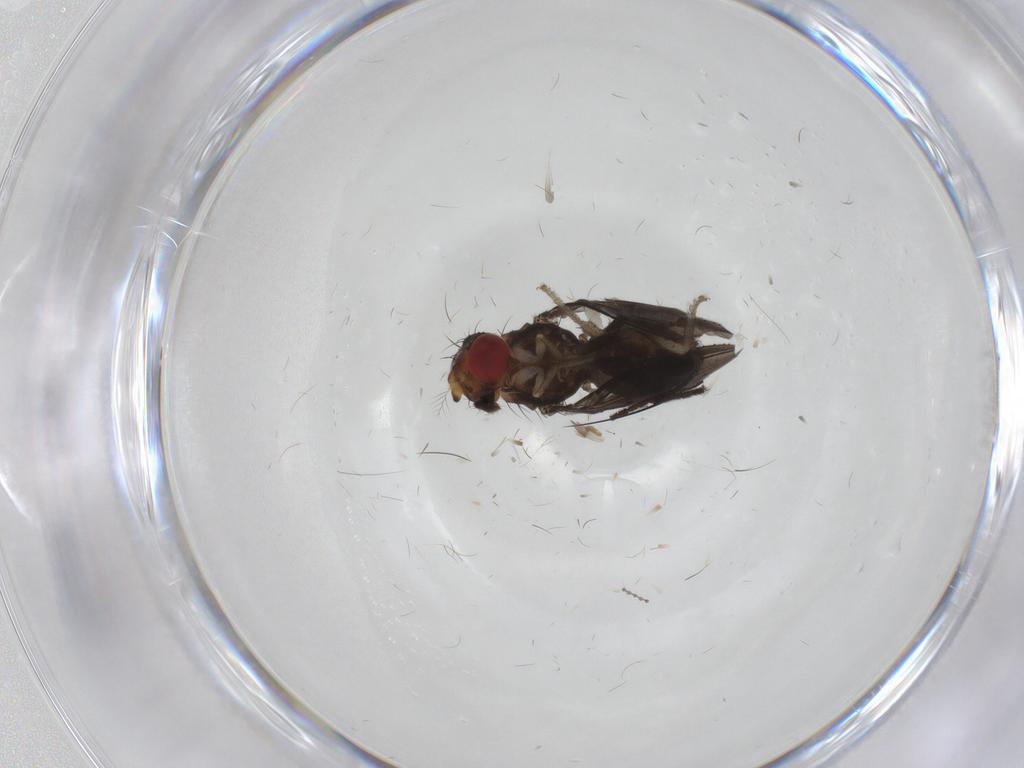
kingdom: Animalia
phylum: Arthropoda
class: Insecta
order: Diptera
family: Sciaridae
